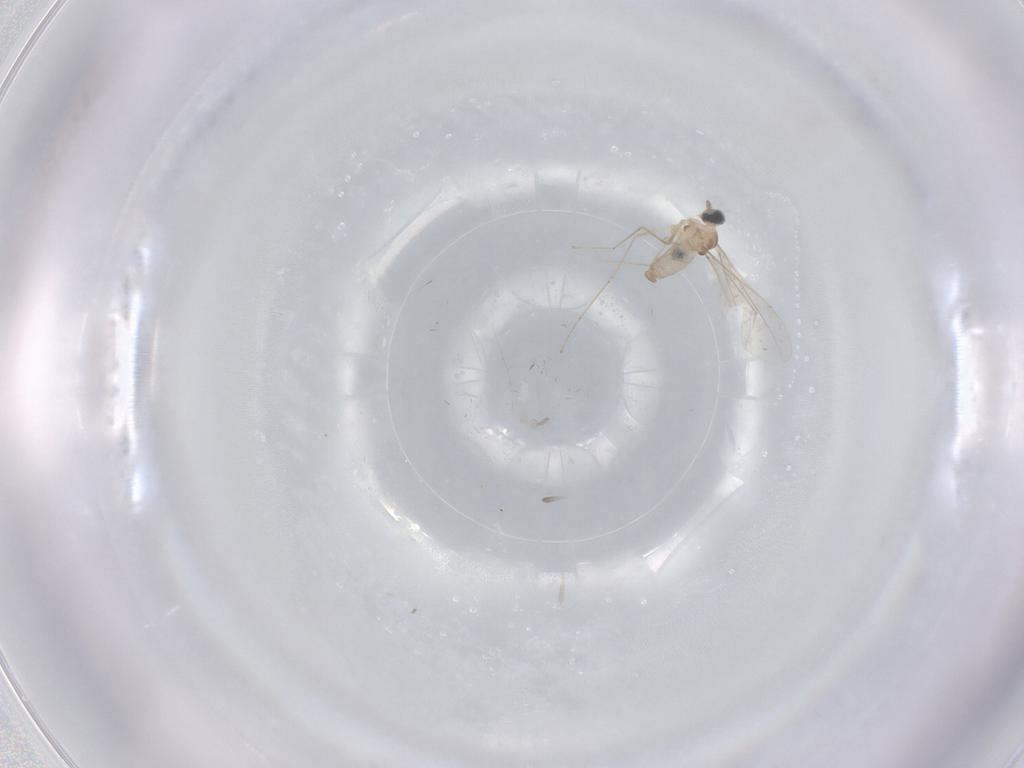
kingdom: Animalia
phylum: Arthropoda
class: Insecta
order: Diptera
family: Cecidomyiidae
